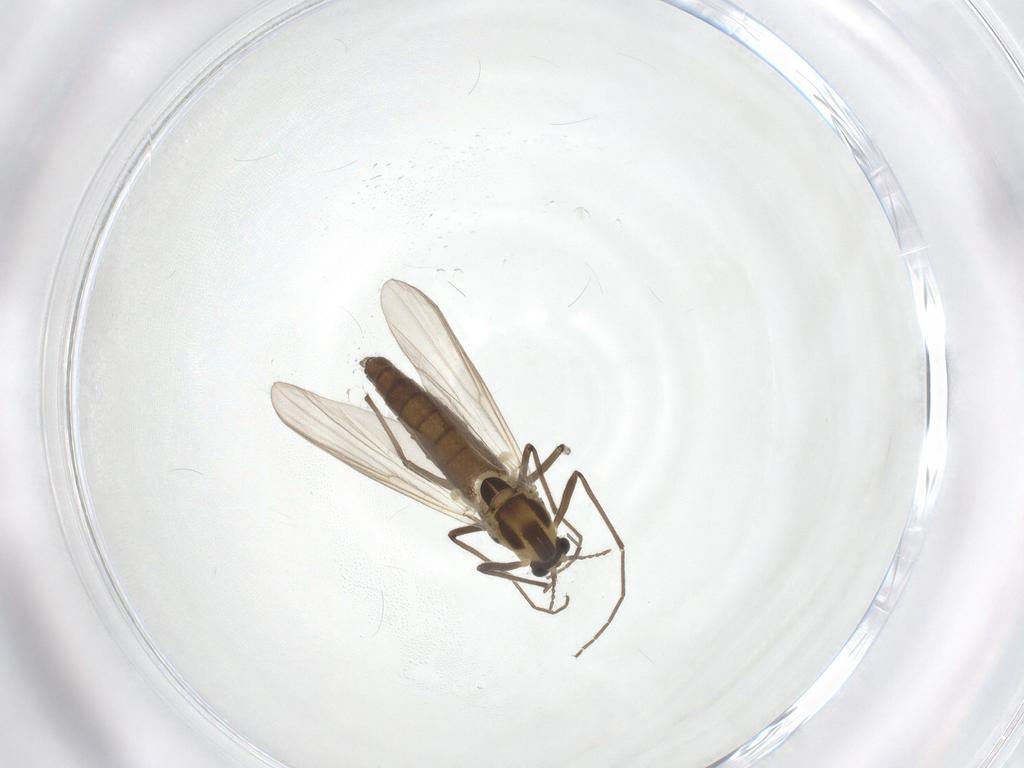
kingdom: Animalia
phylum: Arthropoda
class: Insecta
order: Diptera
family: Chironomidae
